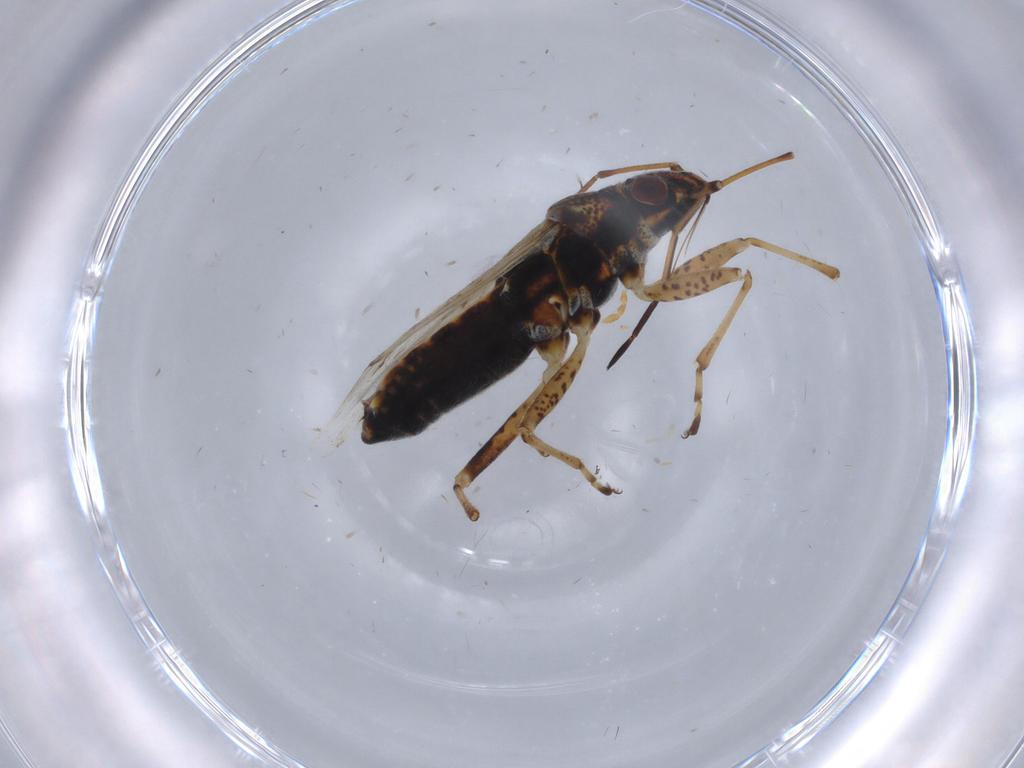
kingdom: Animalia
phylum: Arthropoda
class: Insecta
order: Hemiptera
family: Lygaeidae
